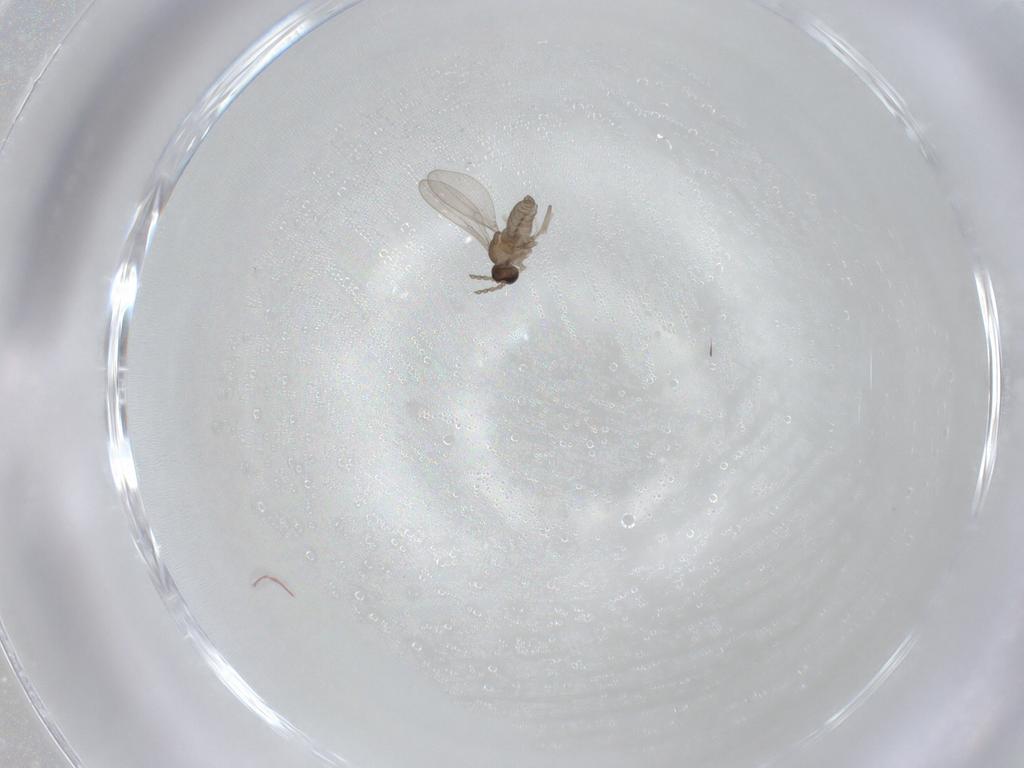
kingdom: Animalia
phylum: Arthropoda
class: Insecta
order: Diptera
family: Cecidomyiidae
